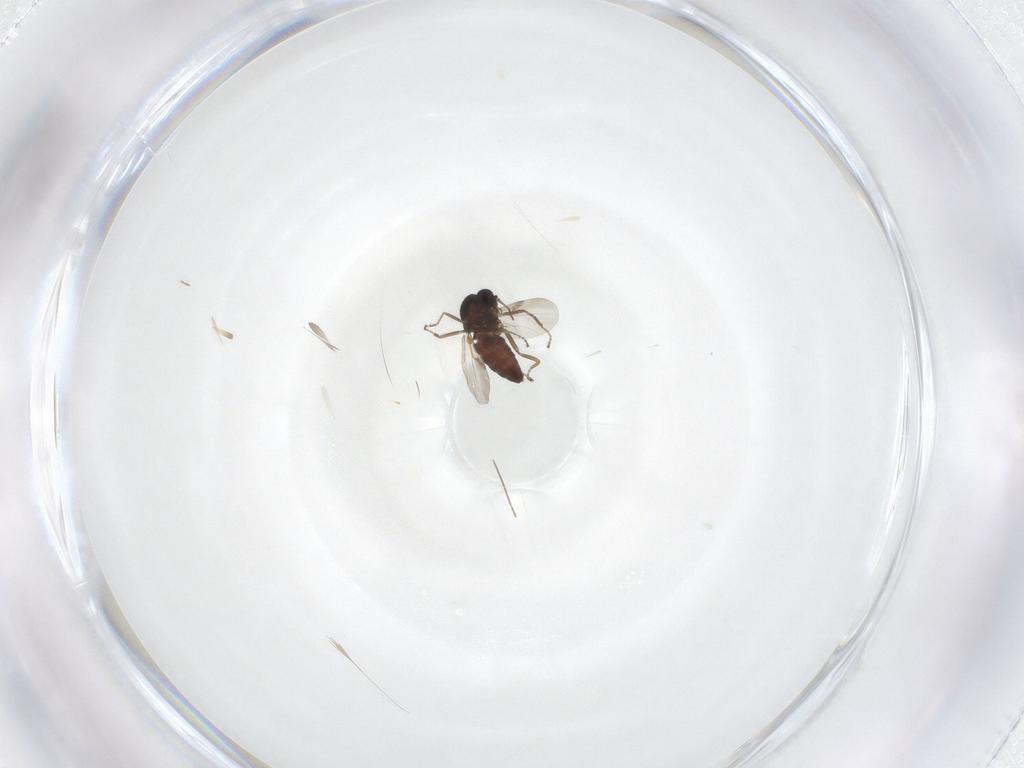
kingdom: Animalia
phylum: Arthropoda
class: Insecta
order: Diptera
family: Ceratopogonidae
